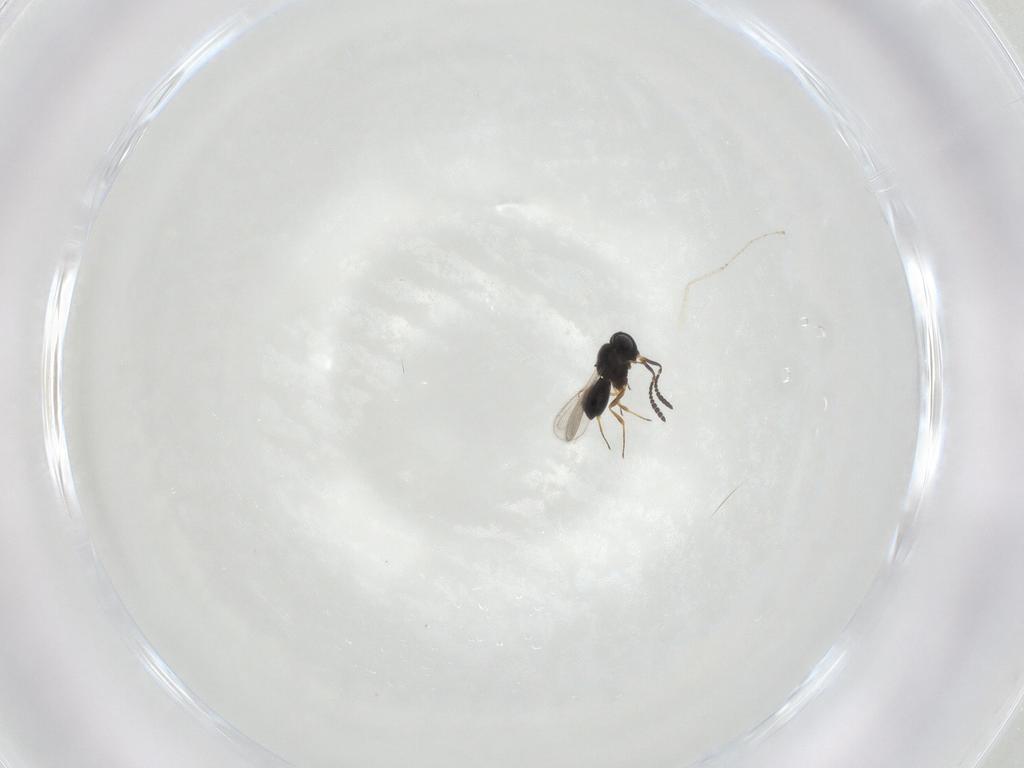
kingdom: Animalia
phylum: Arthropoda
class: Insecta
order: Hymenoptera
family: Scelionidae
